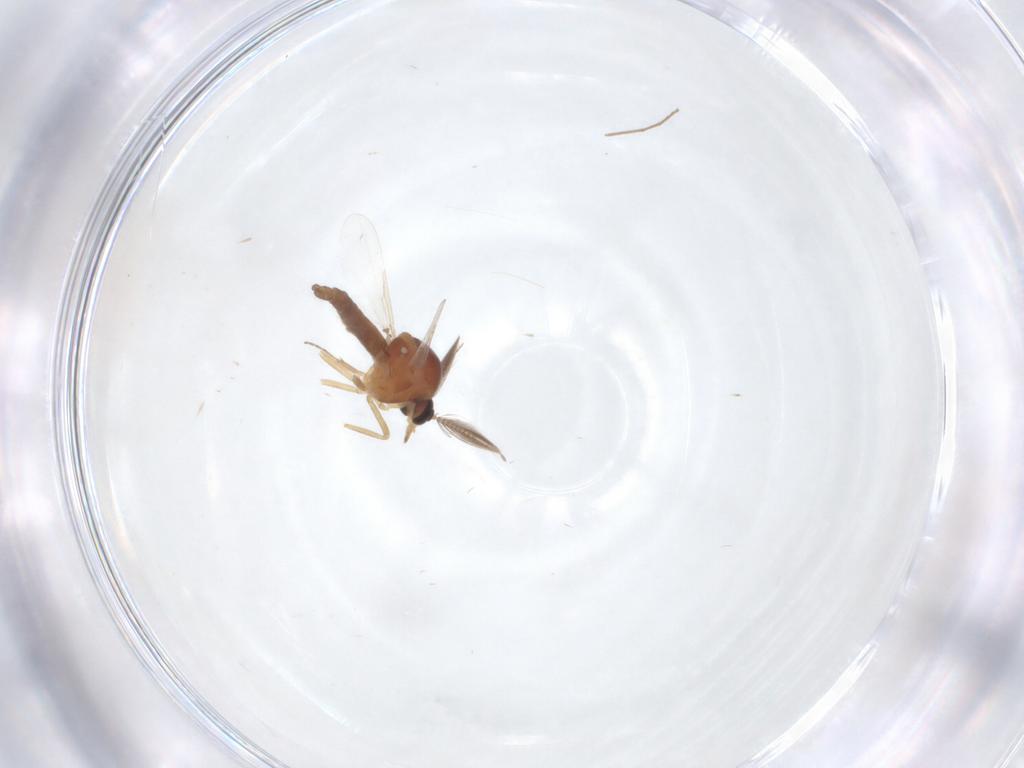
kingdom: Animalia
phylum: Arthropoda
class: Insecta
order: Diptera
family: Ceratopogonidae
